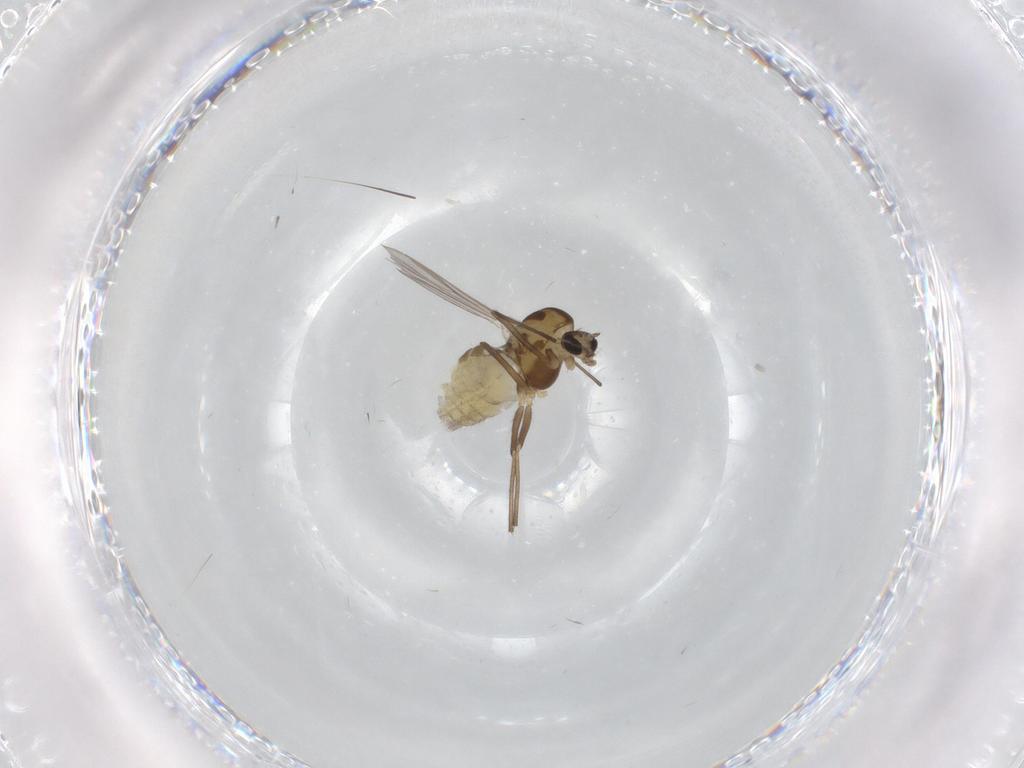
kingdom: Animalia
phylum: Arthropoda
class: Insecta
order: Diptera
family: Chironomidae
